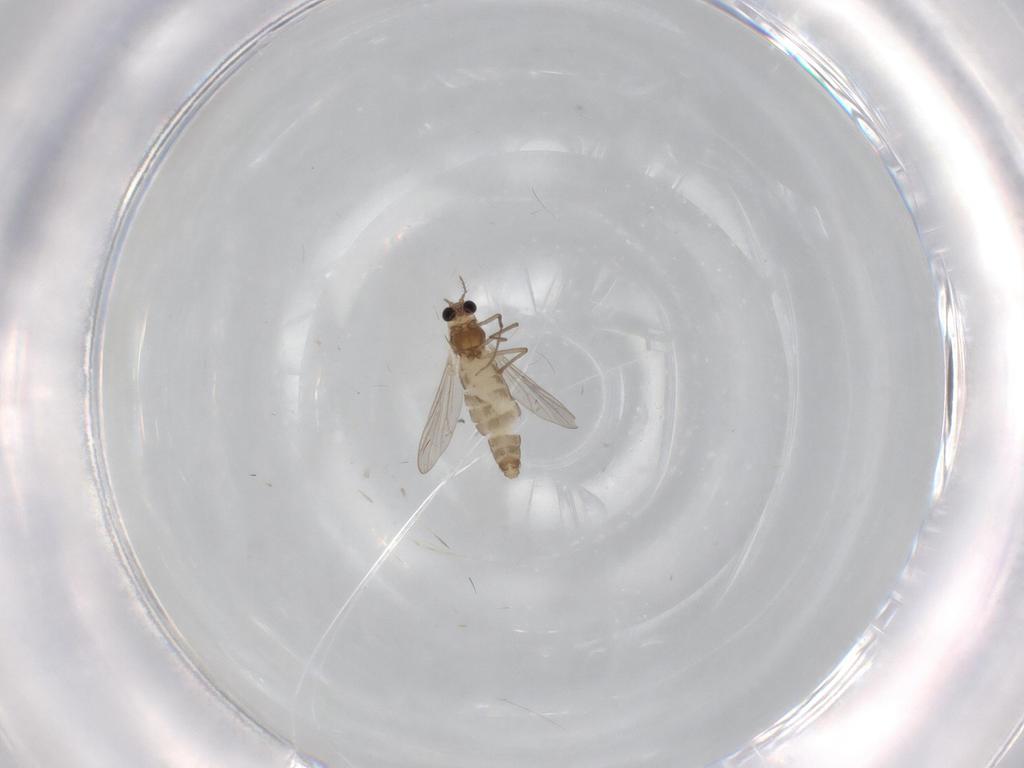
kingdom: Animalia
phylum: Arthropoda
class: Insecta
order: Diptera
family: Chironomidae
